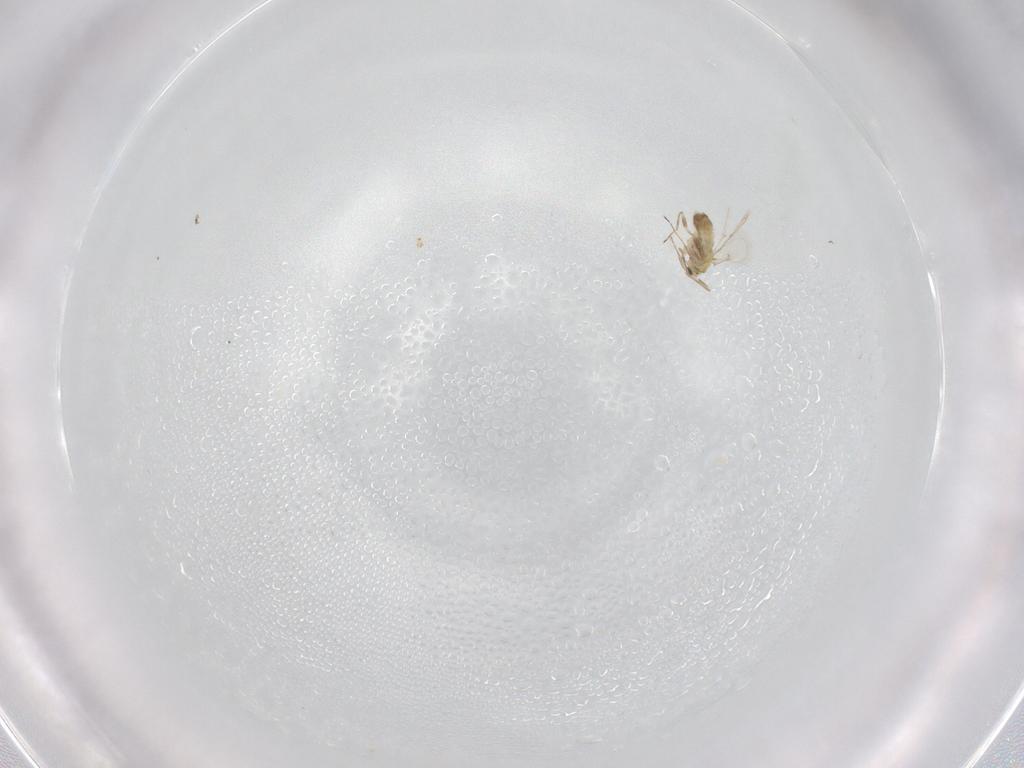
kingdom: Animalia
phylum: Arthropoda
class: Insecta
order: Hymenoptera
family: Trichogrammatidae
